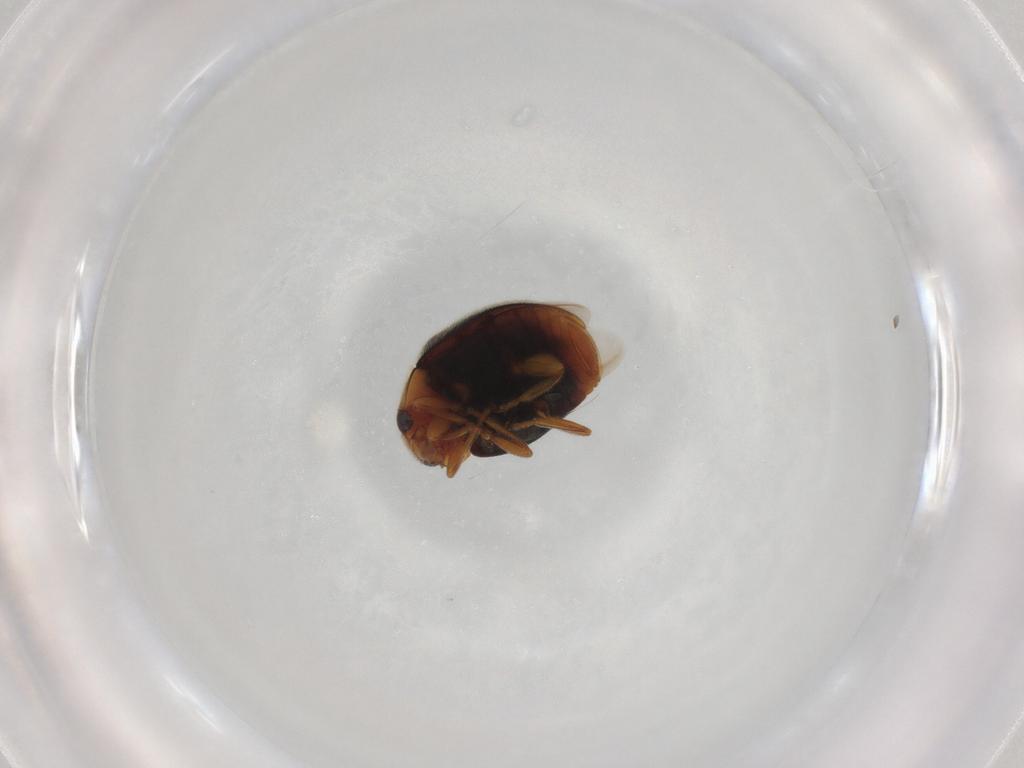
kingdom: Animalia
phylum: Arthropoda
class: Insecta
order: Coleoptera
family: Coccinellidae
